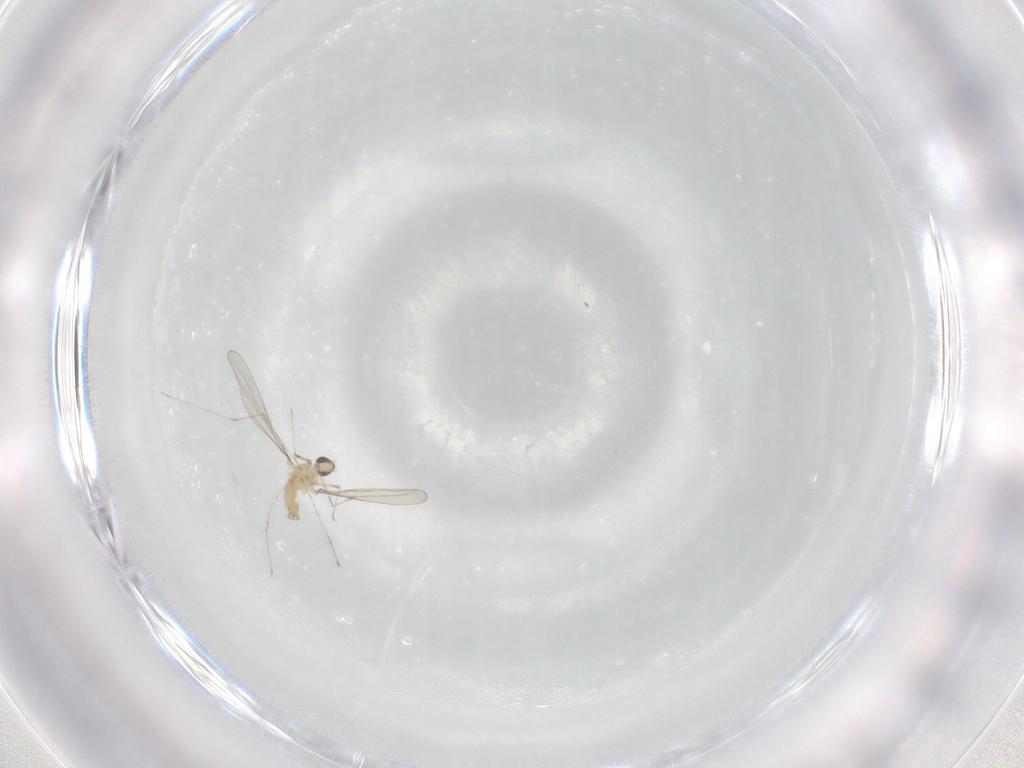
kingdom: Animalia
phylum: Arthropoda
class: Insecta
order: Diptera
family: Cecidomyiidae
